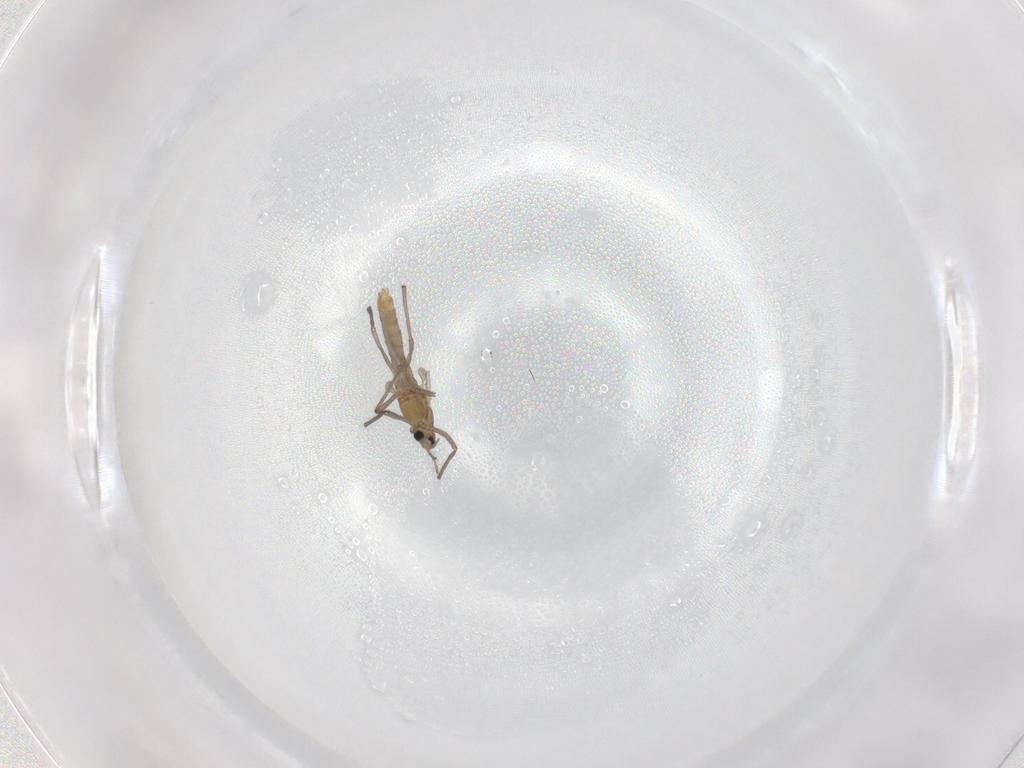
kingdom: Animalia
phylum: Arthropoda
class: Insecta
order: Diptera
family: Chironomidae
